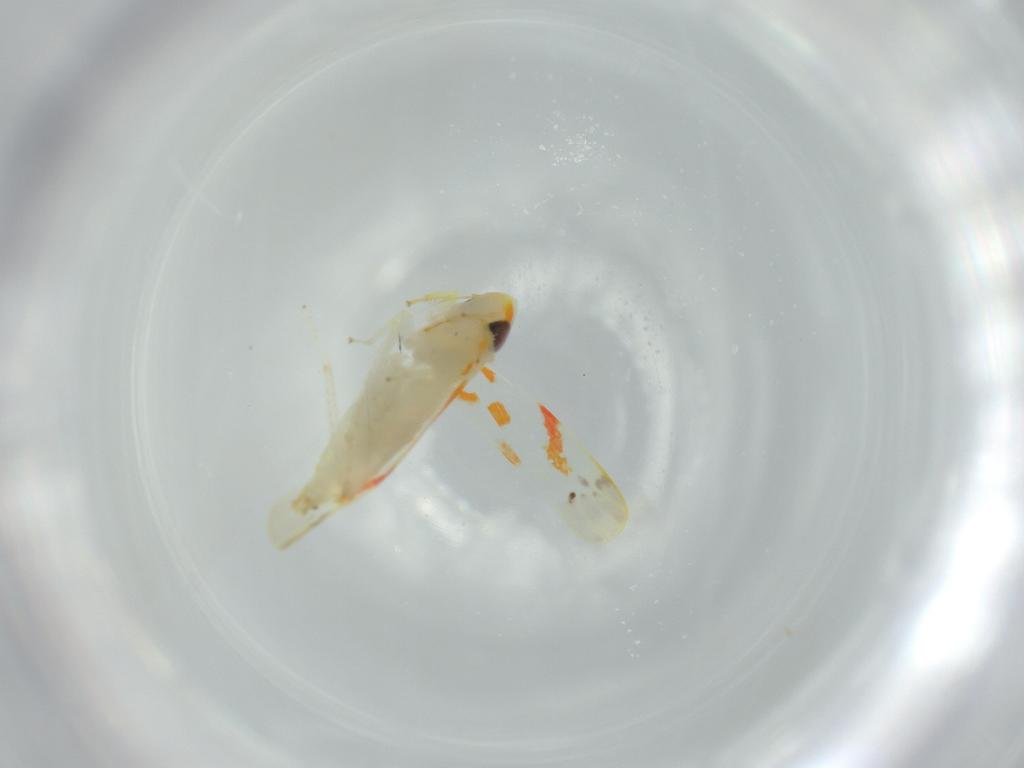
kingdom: Animalia
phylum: Arthropoda
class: Insecta
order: Hemiptera
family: Cicadellidae
